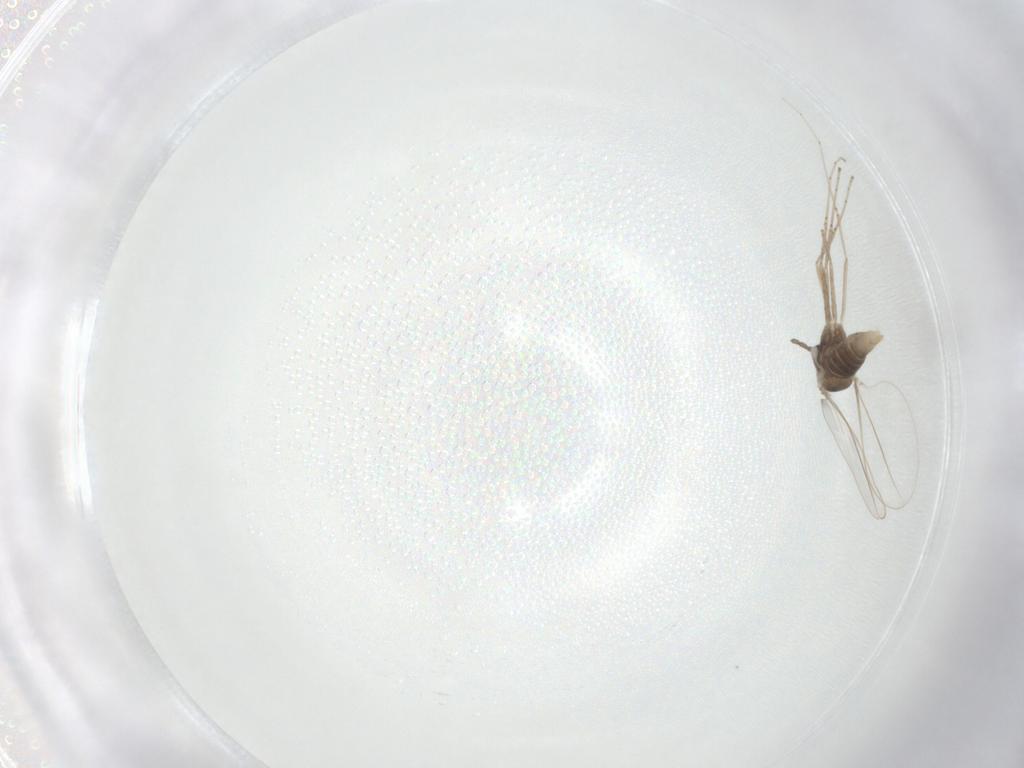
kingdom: Animalia
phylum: Arthropoda
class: Insecta
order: Diptera
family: Cecidomyiidae
